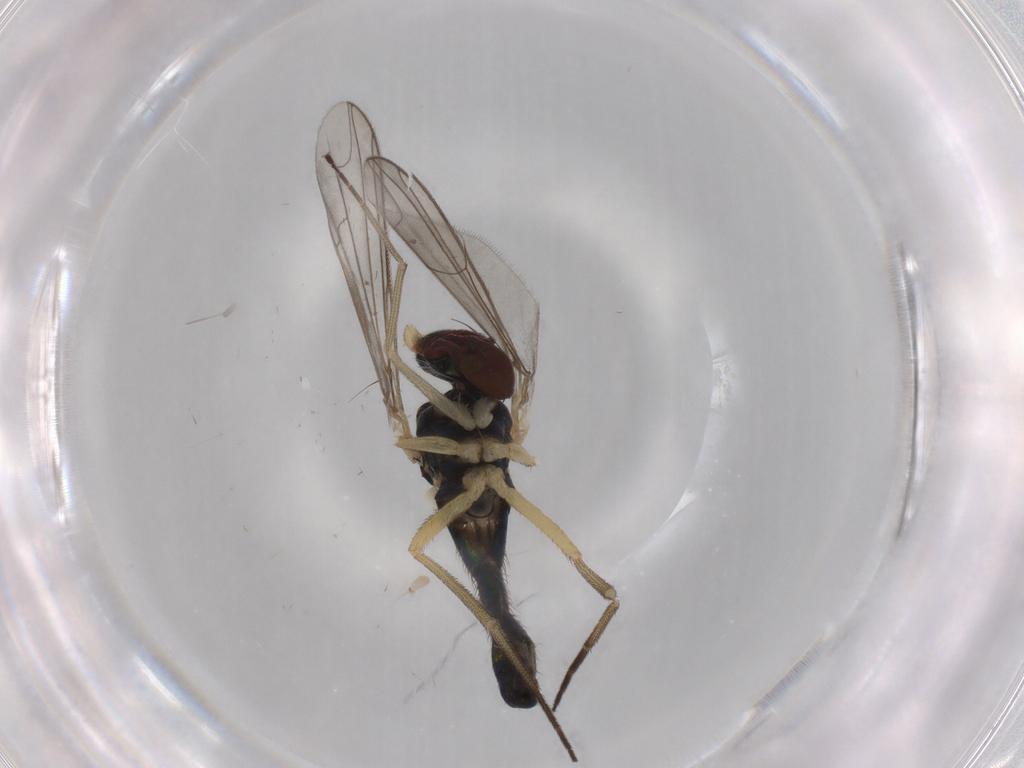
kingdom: Animalia
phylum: Arthropoda
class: Insecta
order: Diptera
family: Dolichopodidae
